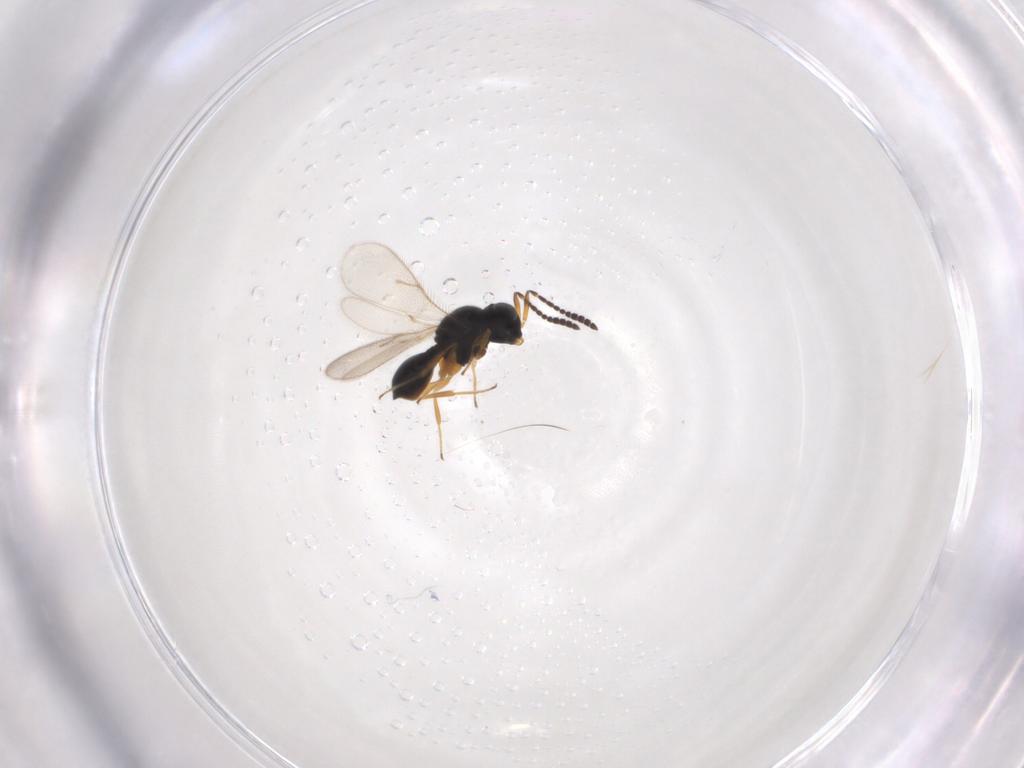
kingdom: Animalia
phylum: Arthropoda
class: Insecta
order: Hymenoptera
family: Scelionidae
